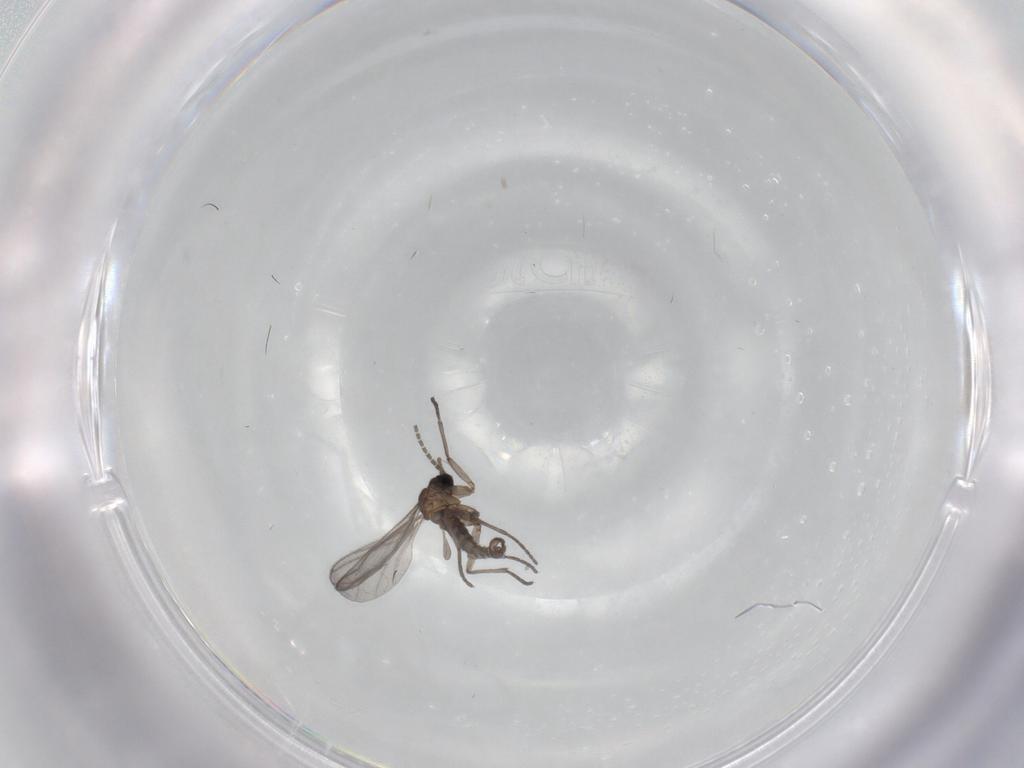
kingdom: Animalia
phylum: Arthropoda
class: Insecta
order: Diptera
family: Sciaridae
